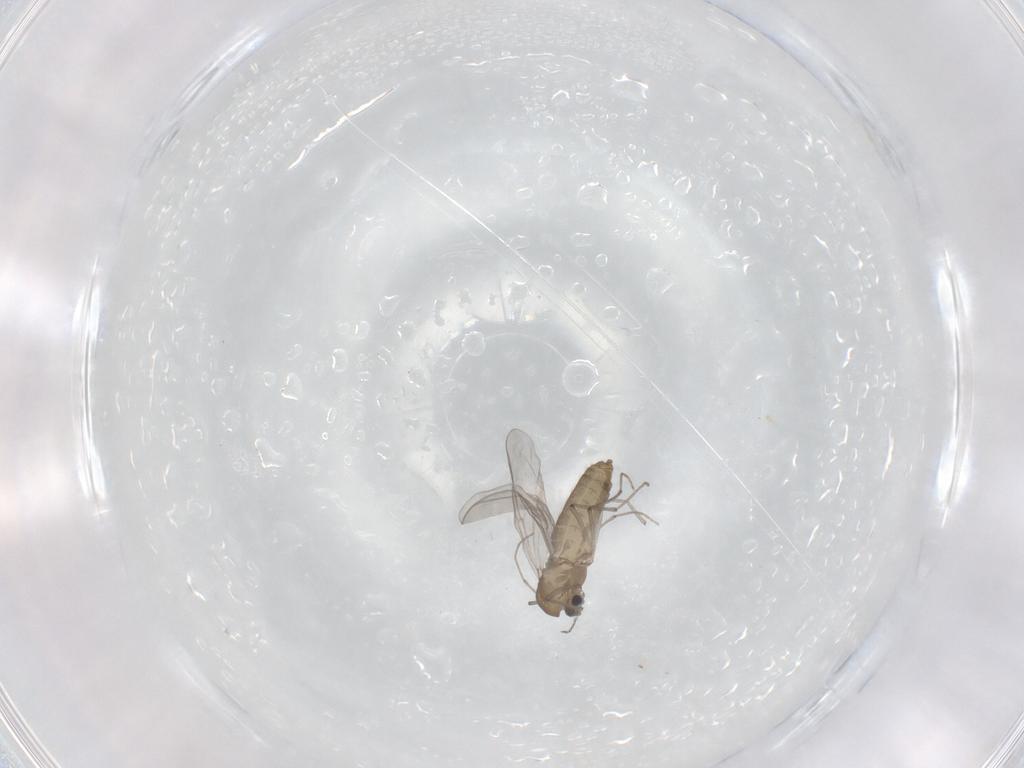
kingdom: Animalia
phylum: Arthropoda
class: Insecta
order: Diptera
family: Chironomidae
